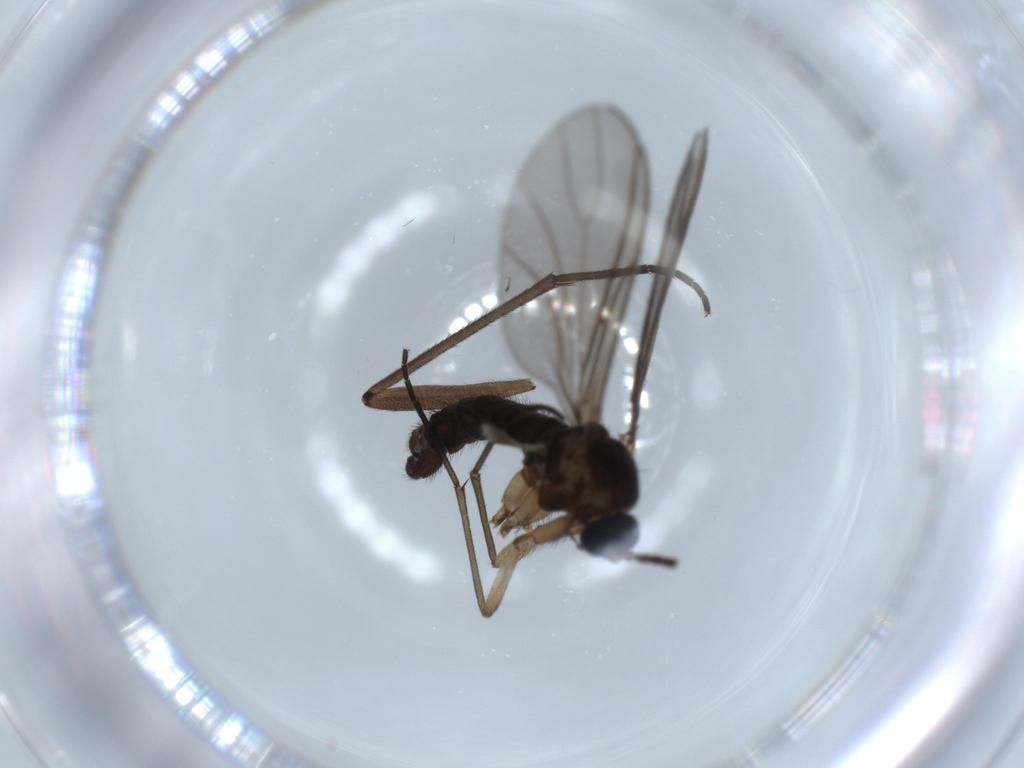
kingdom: Animalia
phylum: Arthropoda
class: Insecta
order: Diptera
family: Sciaridae
